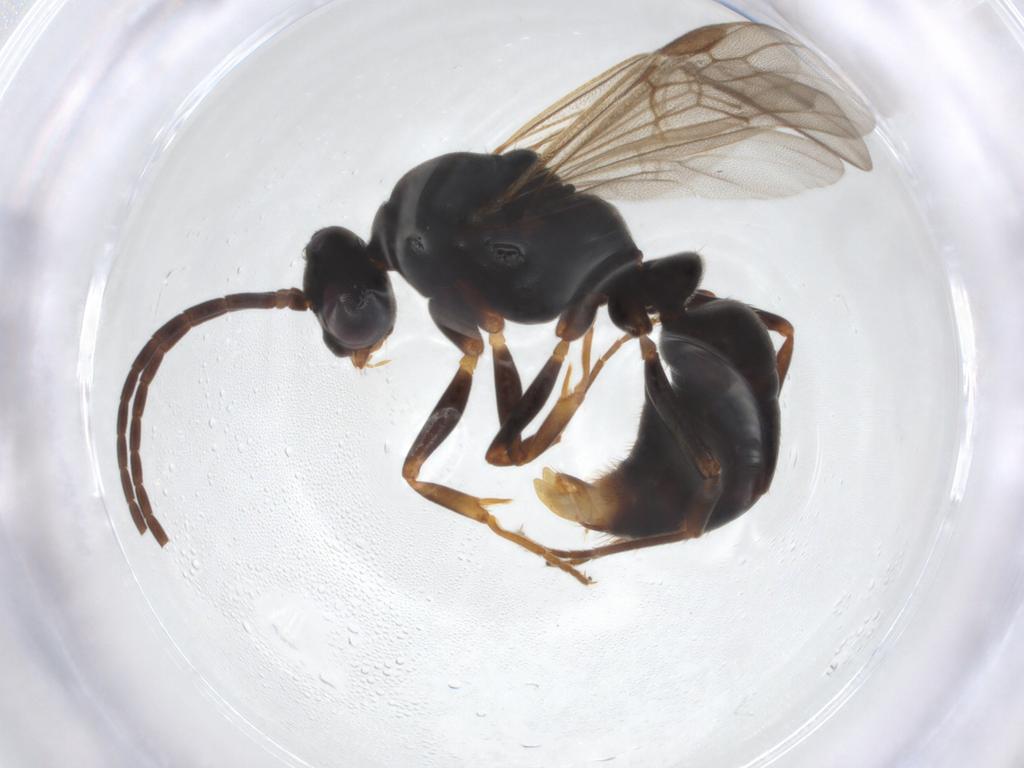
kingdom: Animalia
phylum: Arthropoda
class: Insecta
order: Hymenoptera
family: Formicidae
